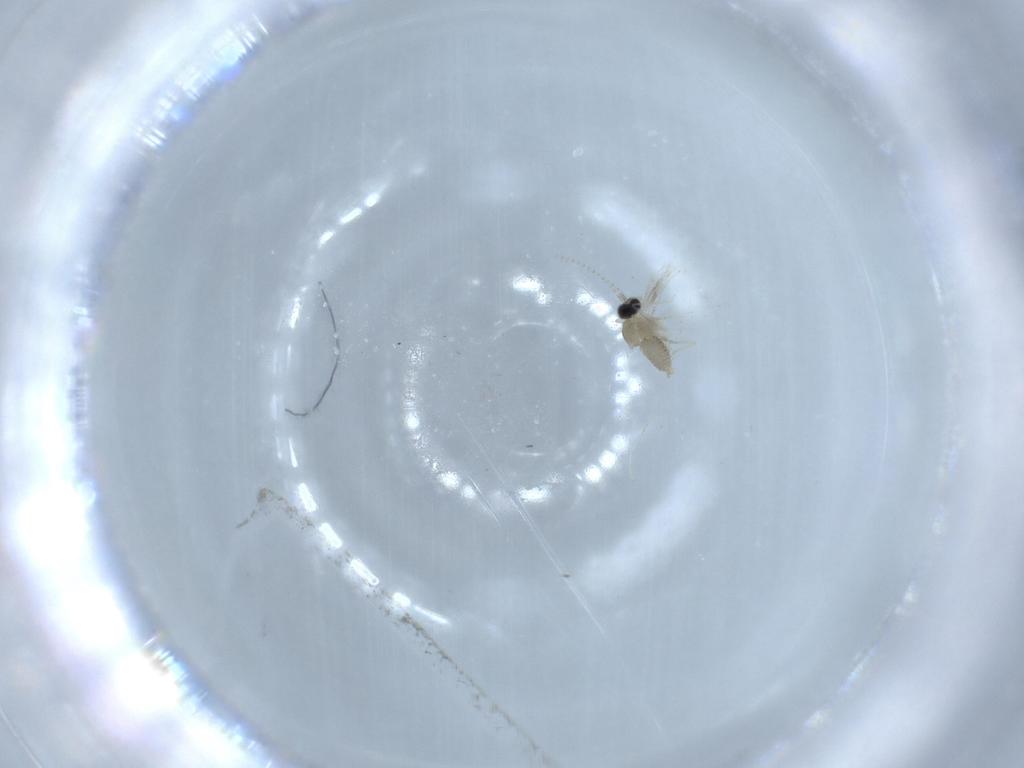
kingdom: Animalia
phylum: Arthropoda
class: Insecta
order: Diptera
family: Cecidomyiidae
